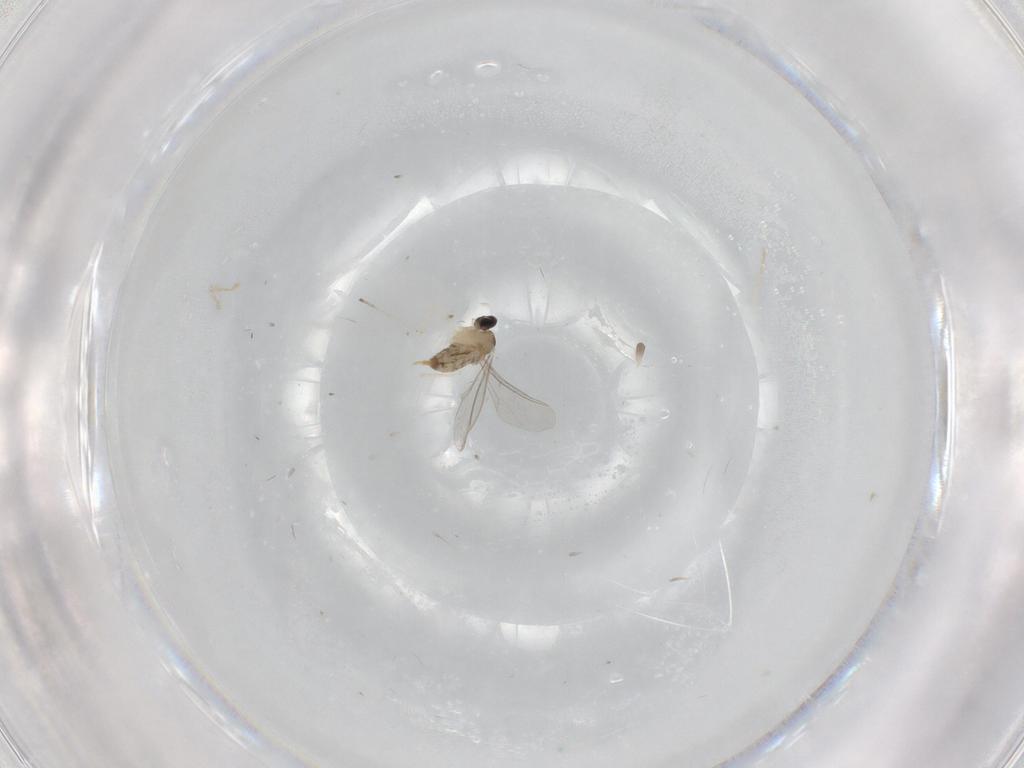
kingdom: Animalia
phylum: Arthropoda
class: Insecta
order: Diptera
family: Cecidomyiidae
